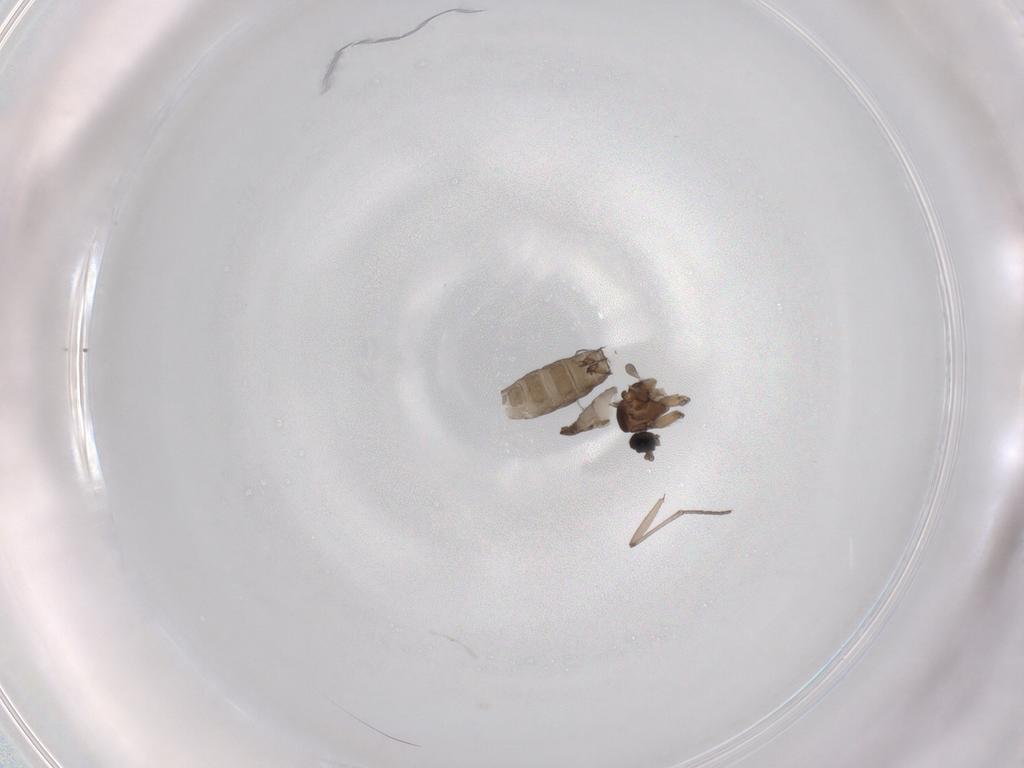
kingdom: Animalia
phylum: Arthropoda
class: Insecta
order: Diptera
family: Sciaridae
